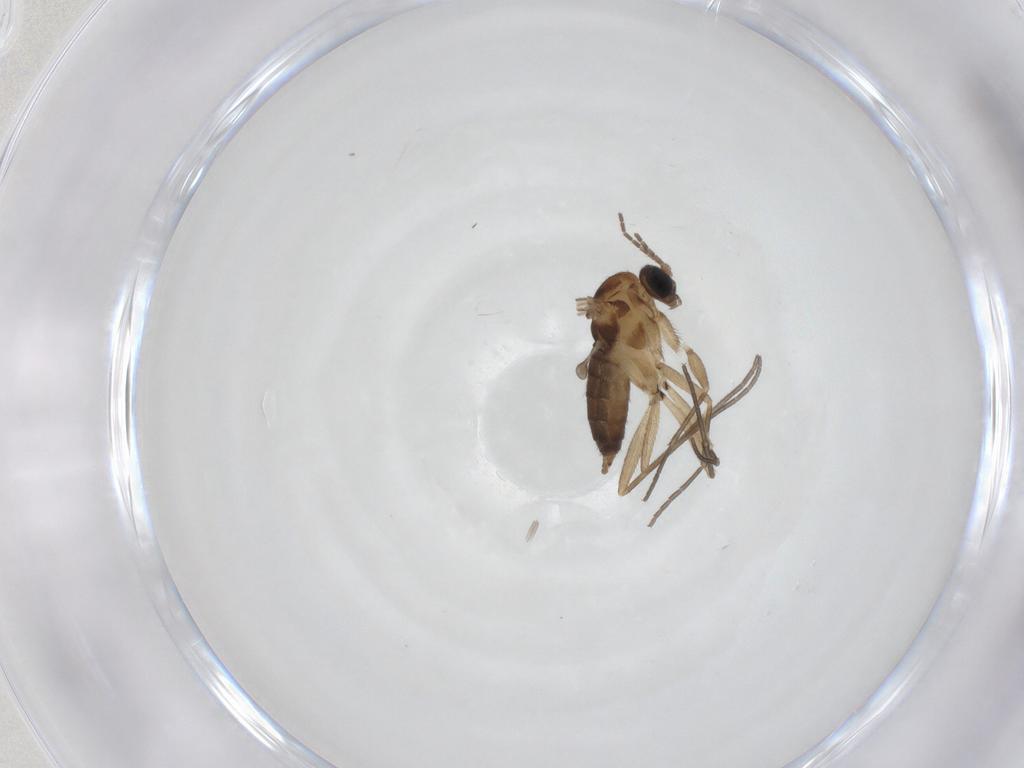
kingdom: Animalia
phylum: Arthropoda
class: Insecta
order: Diptera
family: Sciaridae
